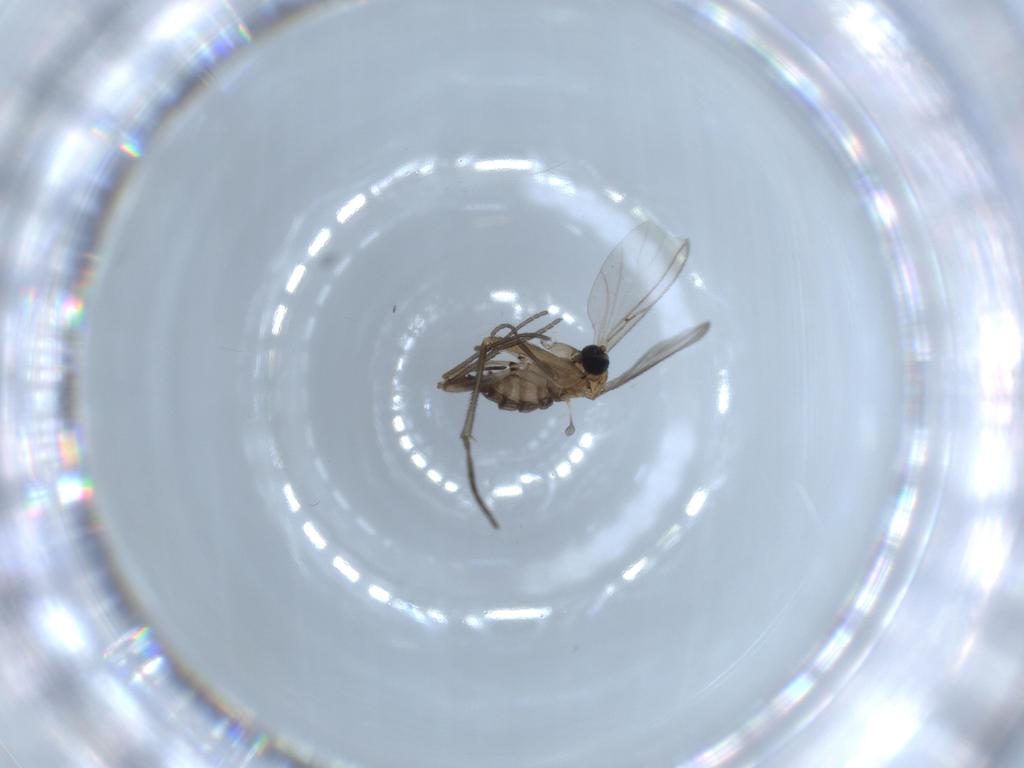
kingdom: Animalia
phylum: Arthropoda
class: Insecta
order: Diptera
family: Sciaridae
